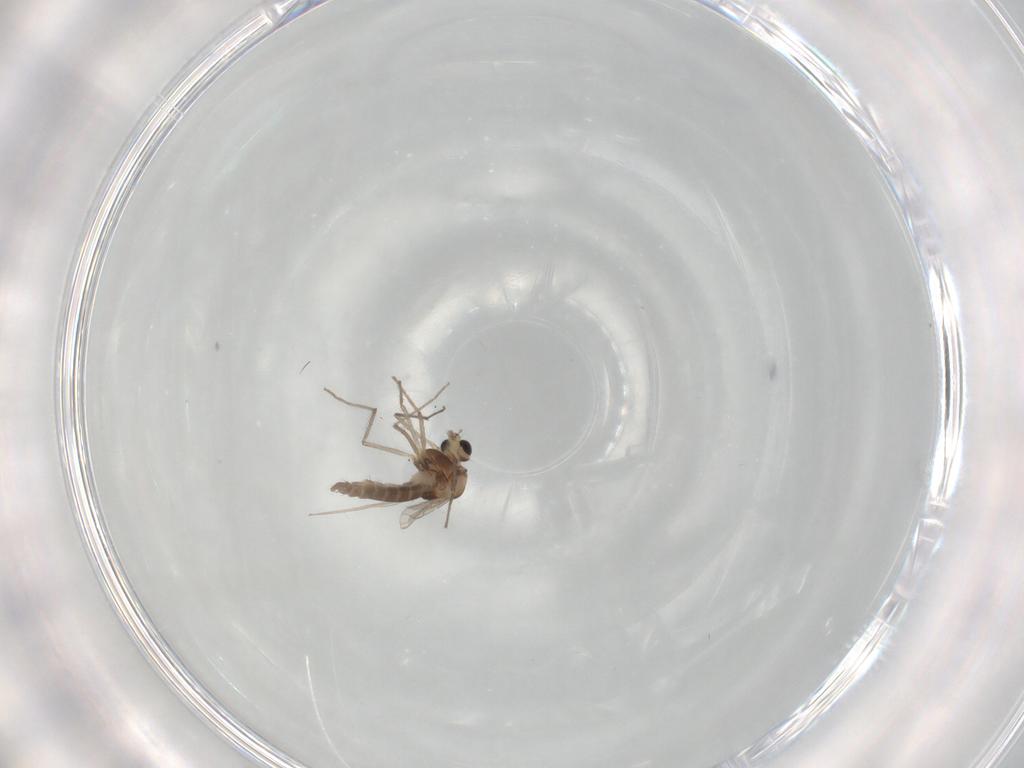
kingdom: Animalia
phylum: Arthropoda
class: Insecta
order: Diptera
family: Chironomidae
